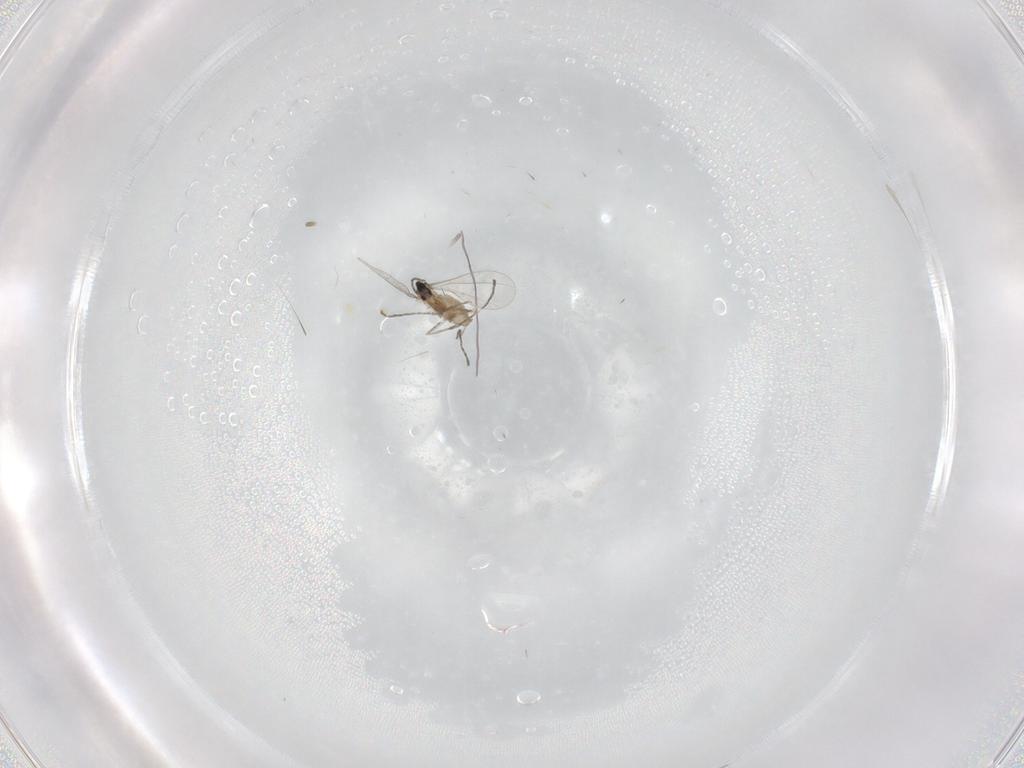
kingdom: Animalia
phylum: Arthropoda
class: Insecta
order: Diptera
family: Cecidomyiidae
